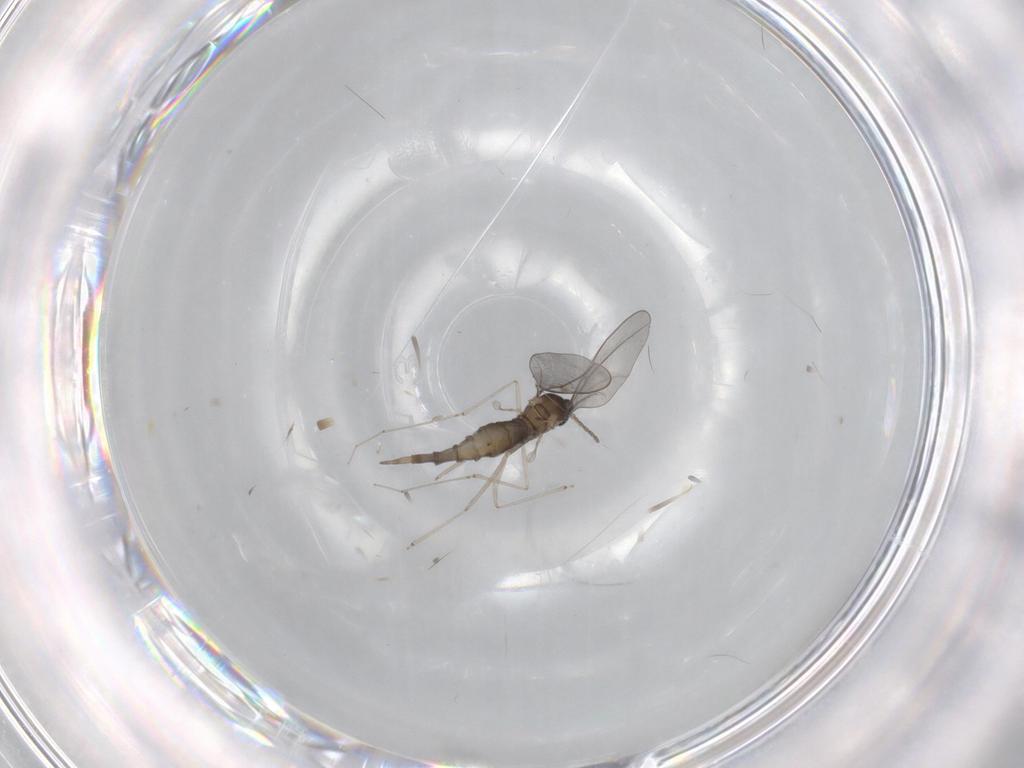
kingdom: Animalia
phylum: Arthropoda
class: Insecta
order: Diptera
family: Cecidomyiidae
